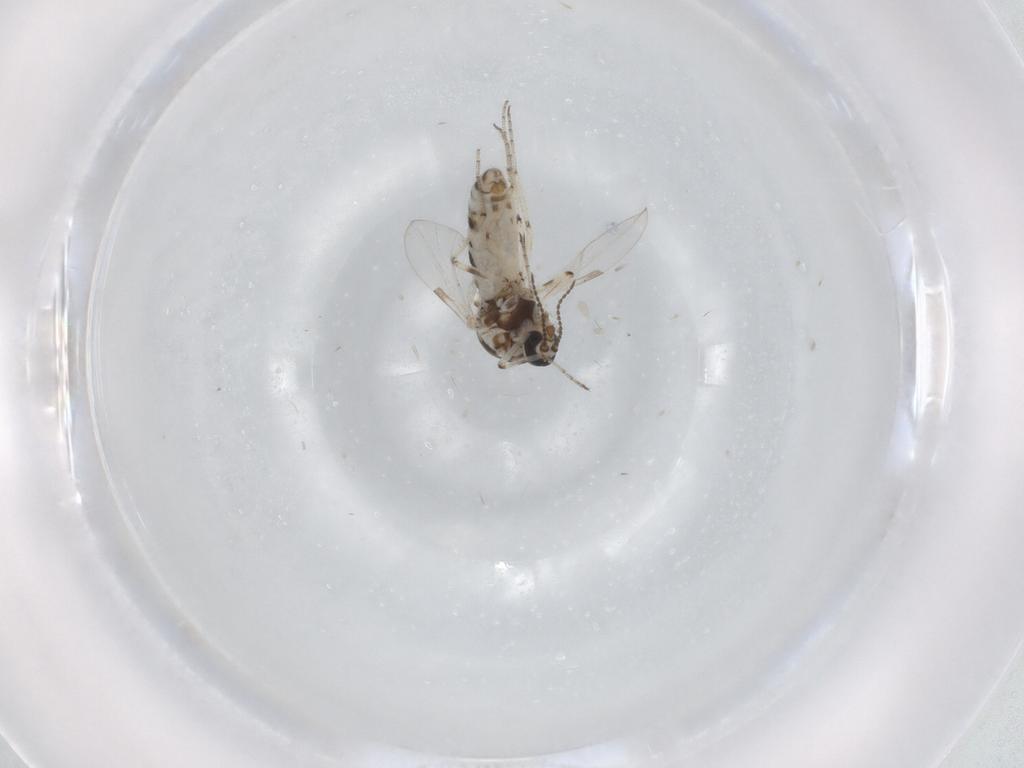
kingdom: Animalia
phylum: Arthropoda
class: Insecta
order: Diptera
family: Ceratopogonidae
